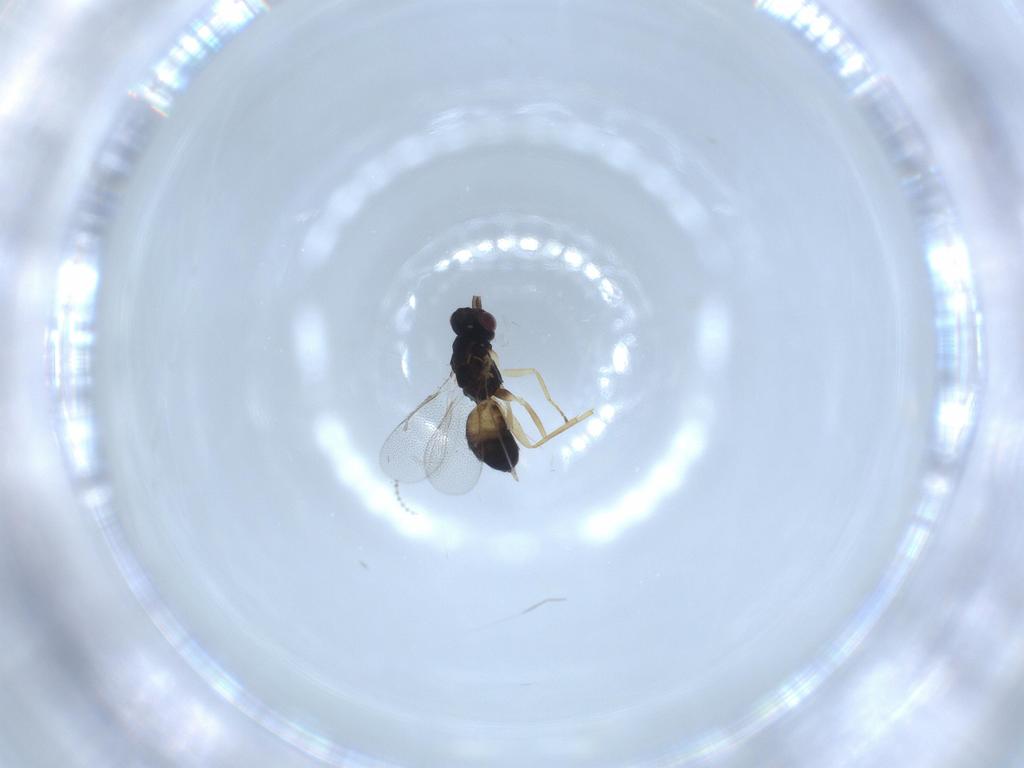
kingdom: Animalia
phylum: Arthropoda
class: Insecta
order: Hymenoptera
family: Eulophidae
